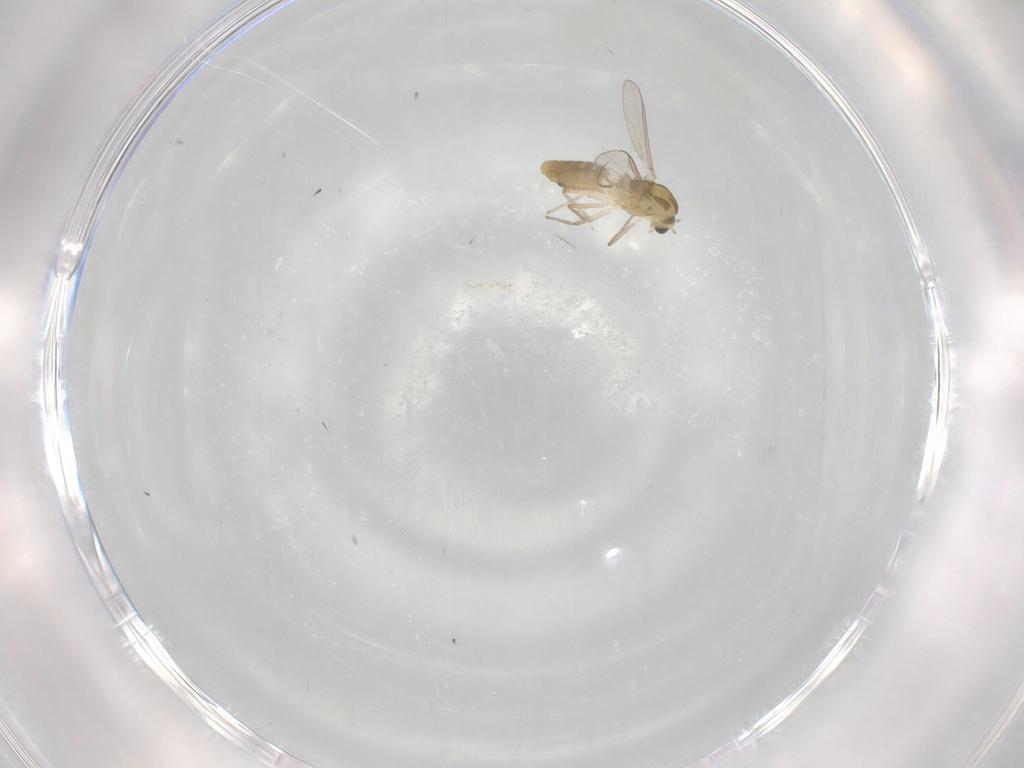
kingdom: Animalia
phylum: Arthropoda
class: Insecta
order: Diptera
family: Chironomidae
